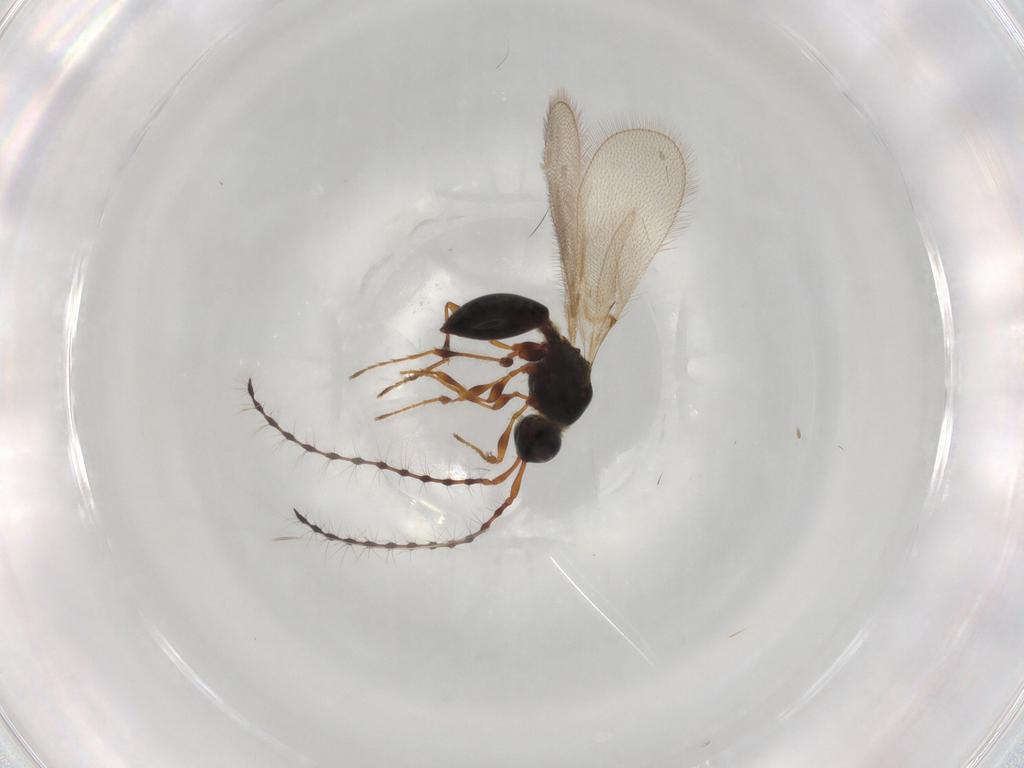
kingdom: Animalia
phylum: Arthropoda
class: Insecta
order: Hymenoptera
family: Diapriidae
